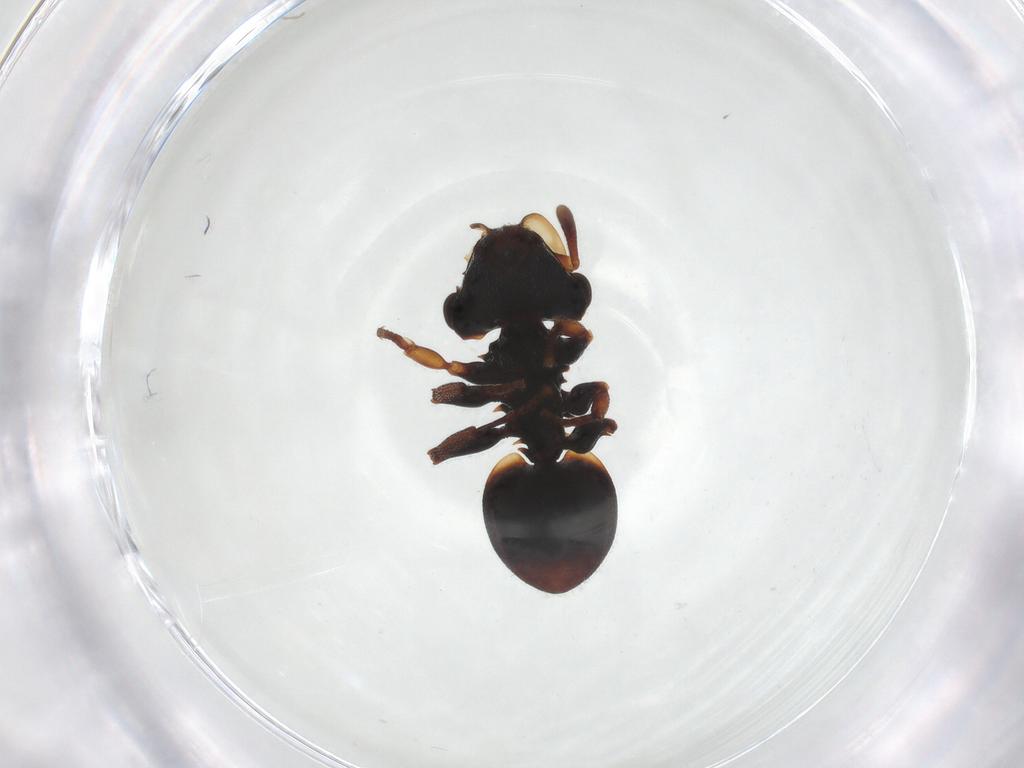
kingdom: Animalia
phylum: Arthropoda
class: Insecta
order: Hymenoptera
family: Formicidae
